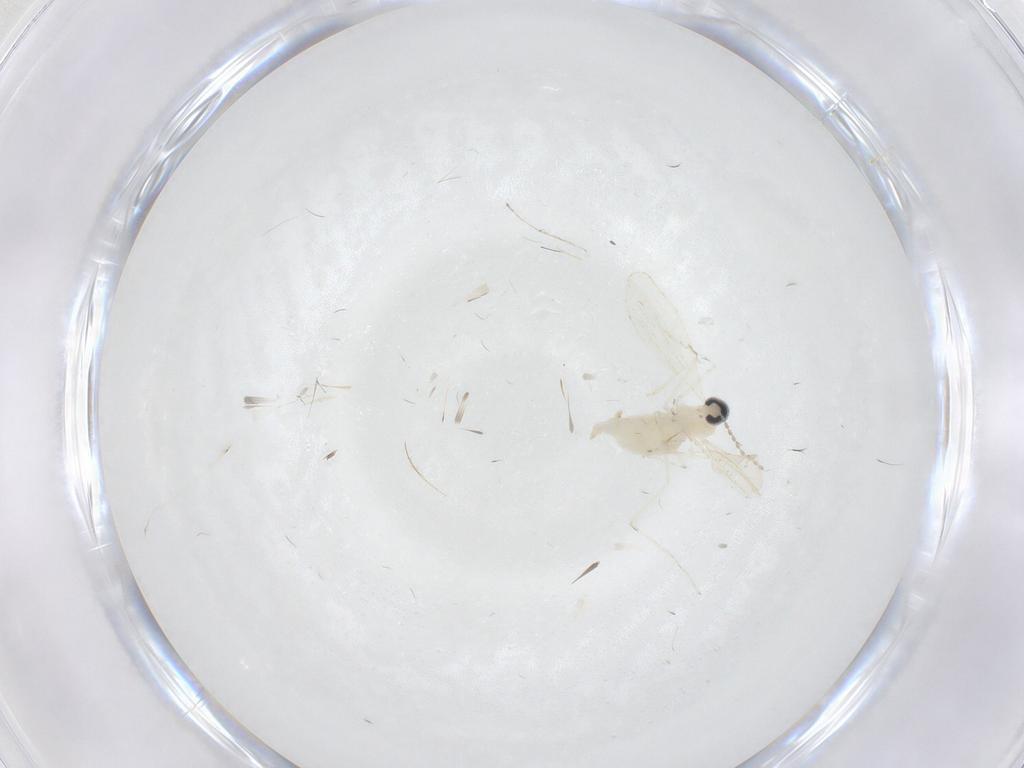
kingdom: Animalia
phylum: Arthropoda
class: Insecta
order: Diptera
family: Cecidomyiidae
